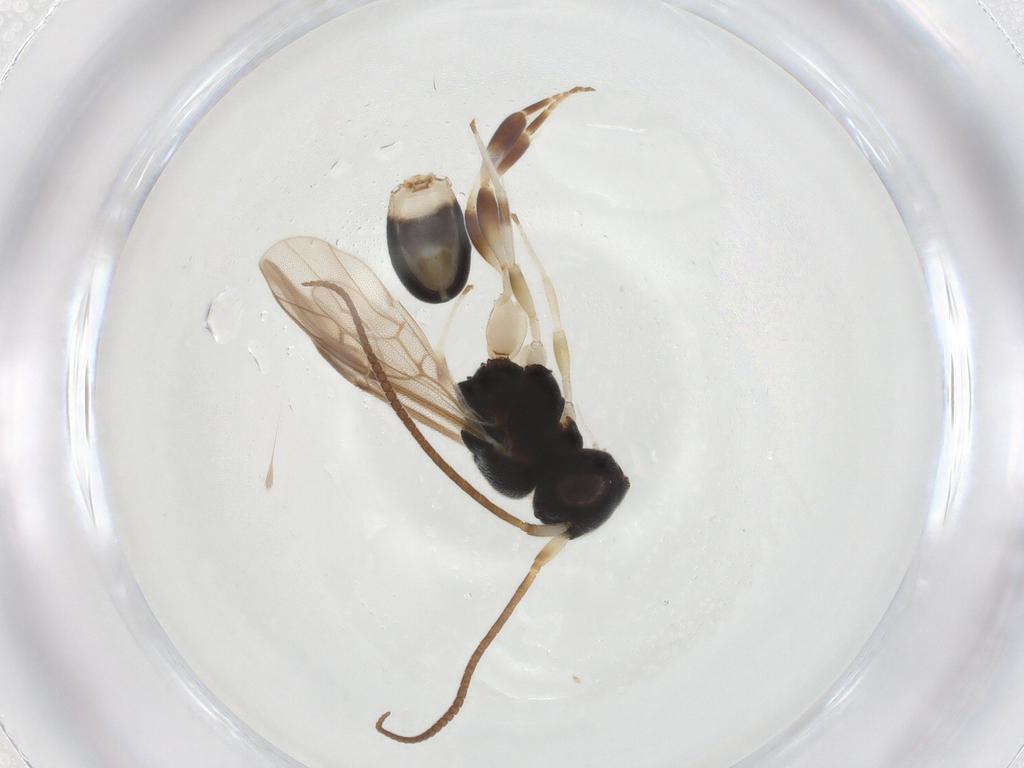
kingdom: Animalia
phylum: Arthropoda
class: Insecta
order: Hymenoptera
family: Braconidae
